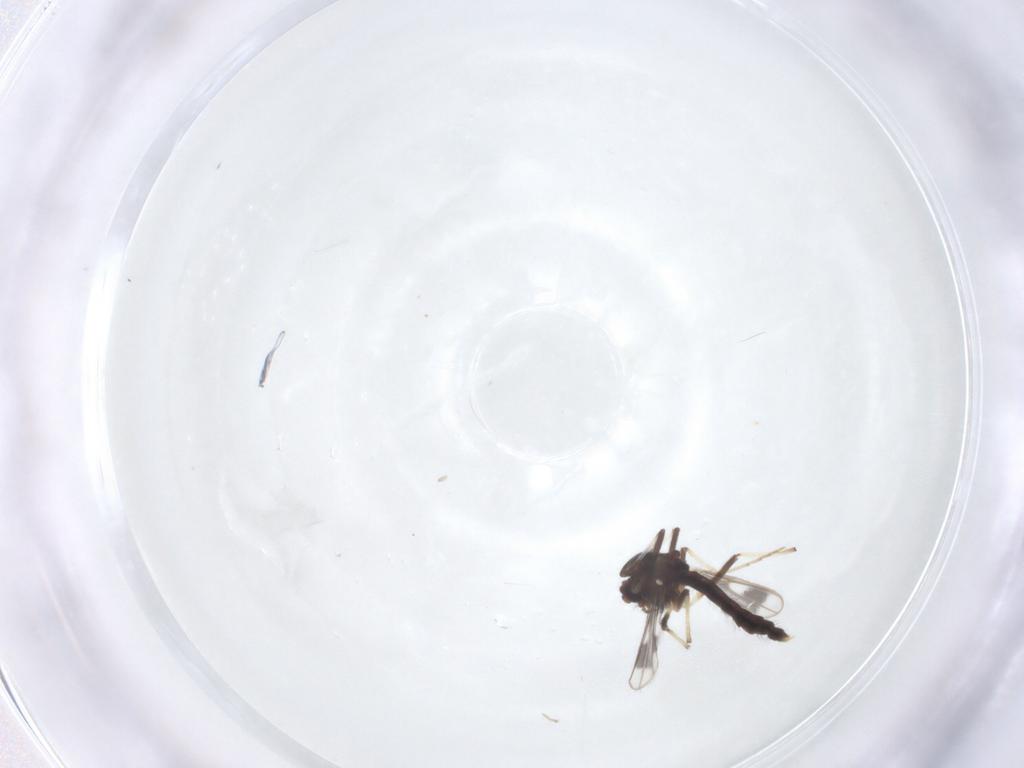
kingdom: Animalia
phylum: Arthropoda
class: Insecta
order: Diptera
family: Chironomidae
